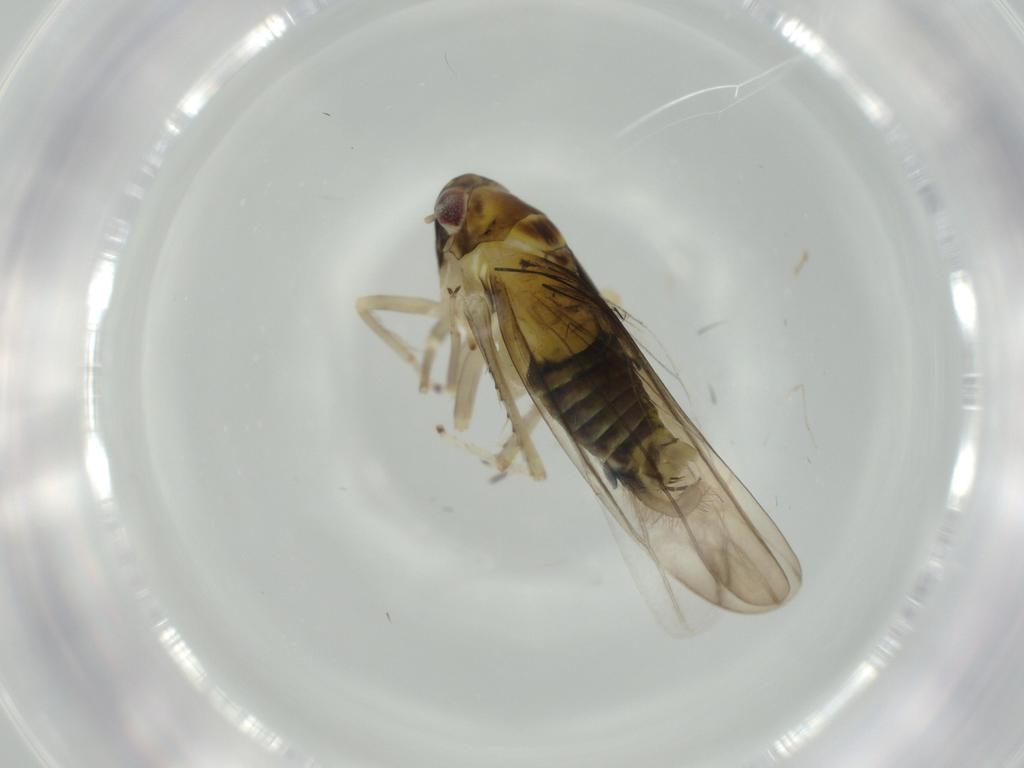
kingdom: Animalia
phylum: Arthropoda
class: Insecta
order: Hemiptera
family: Cicadellidae
